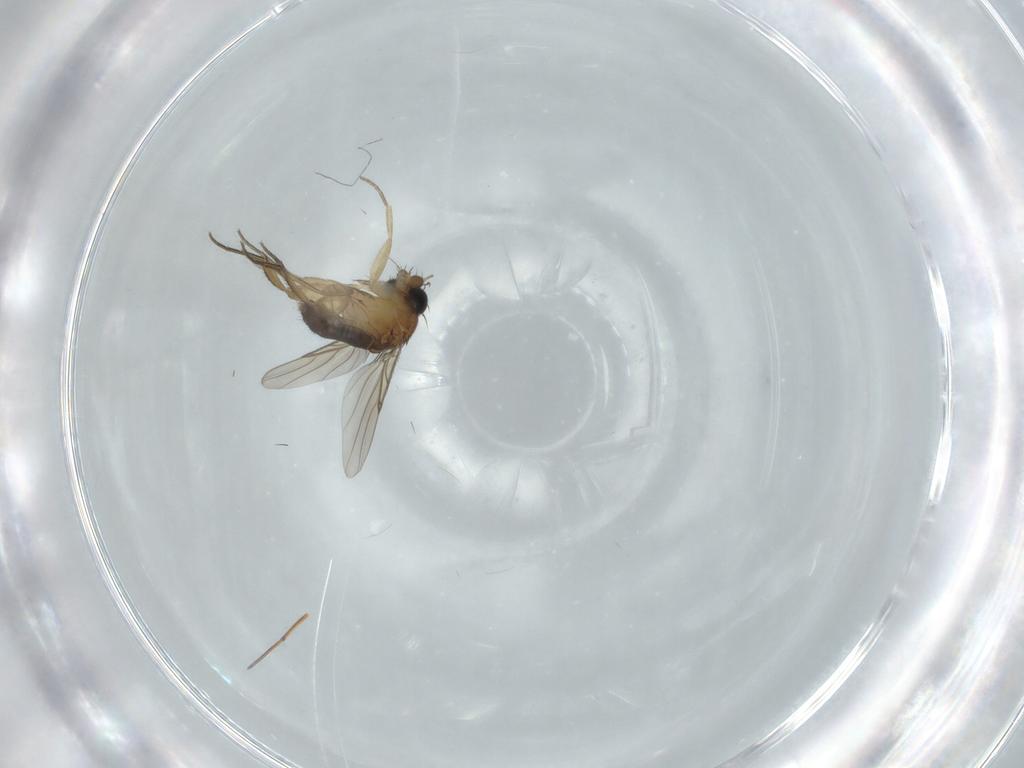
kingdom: Animalia
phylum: Arthropoda
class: Insecta
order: Diptera
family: Phoridae
